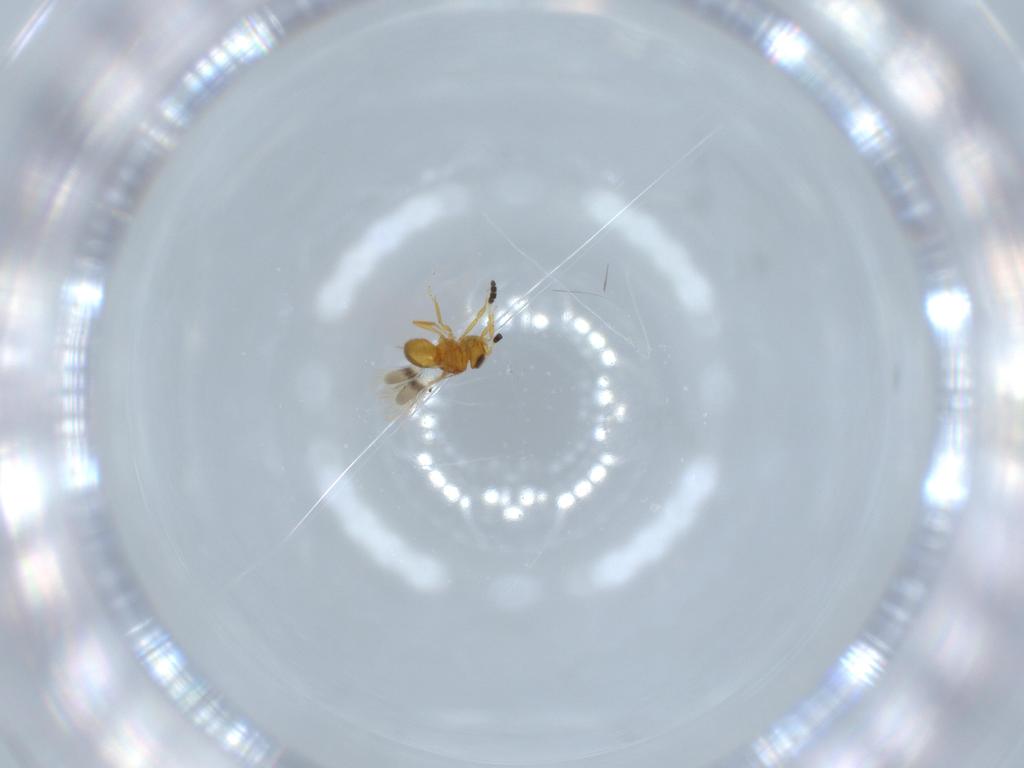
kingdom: Animalia
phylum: Arthropoda
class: Insecta
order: Hymenoptera
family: Scelionidae
